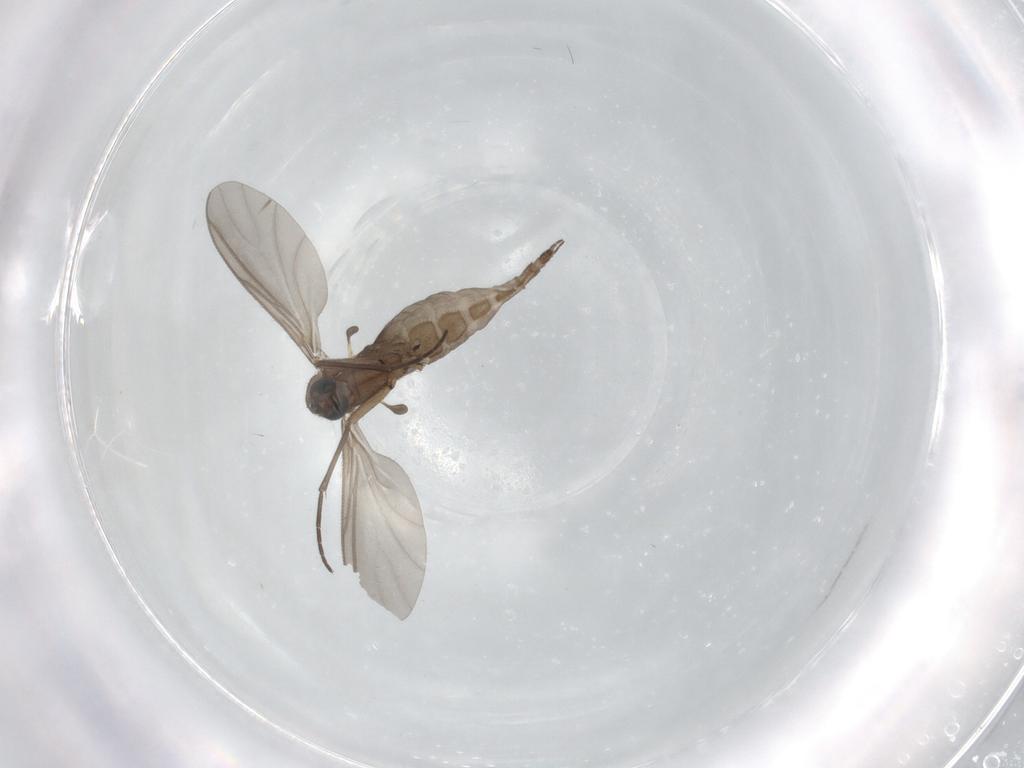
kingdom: Animalia
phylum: Arthropoda
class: Insecta
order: Diptera
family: Sciaridae
